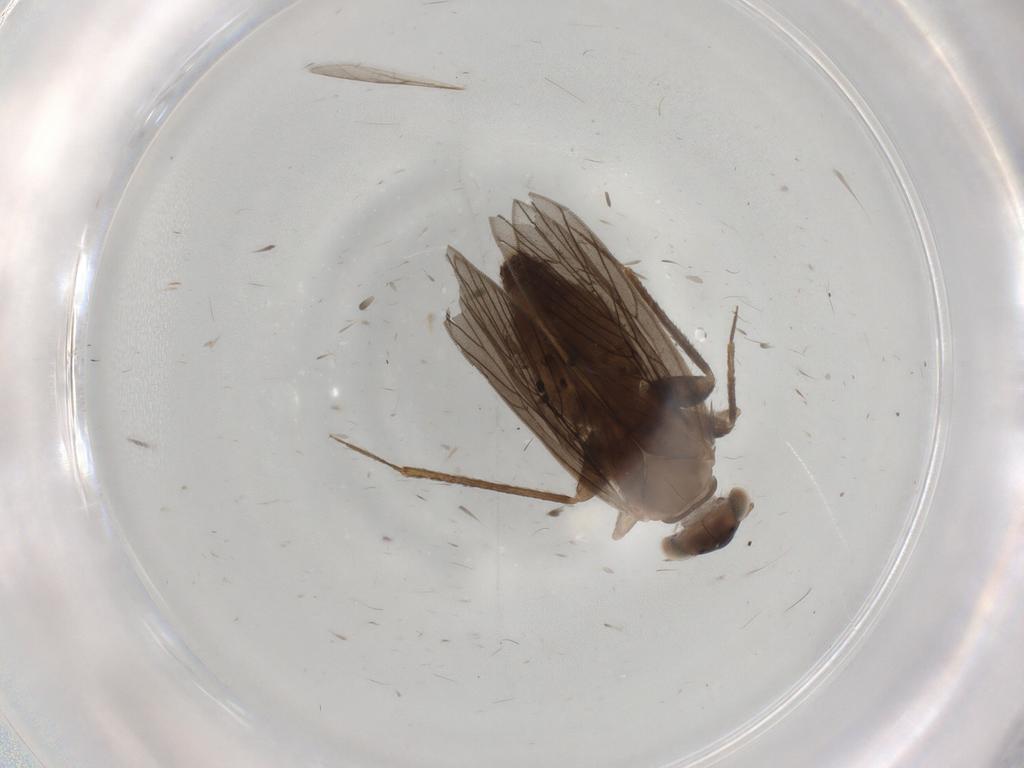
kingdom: Animalia
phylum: Arthropoda
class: Insecta
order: Psocodea
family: Lepidopsocidae
